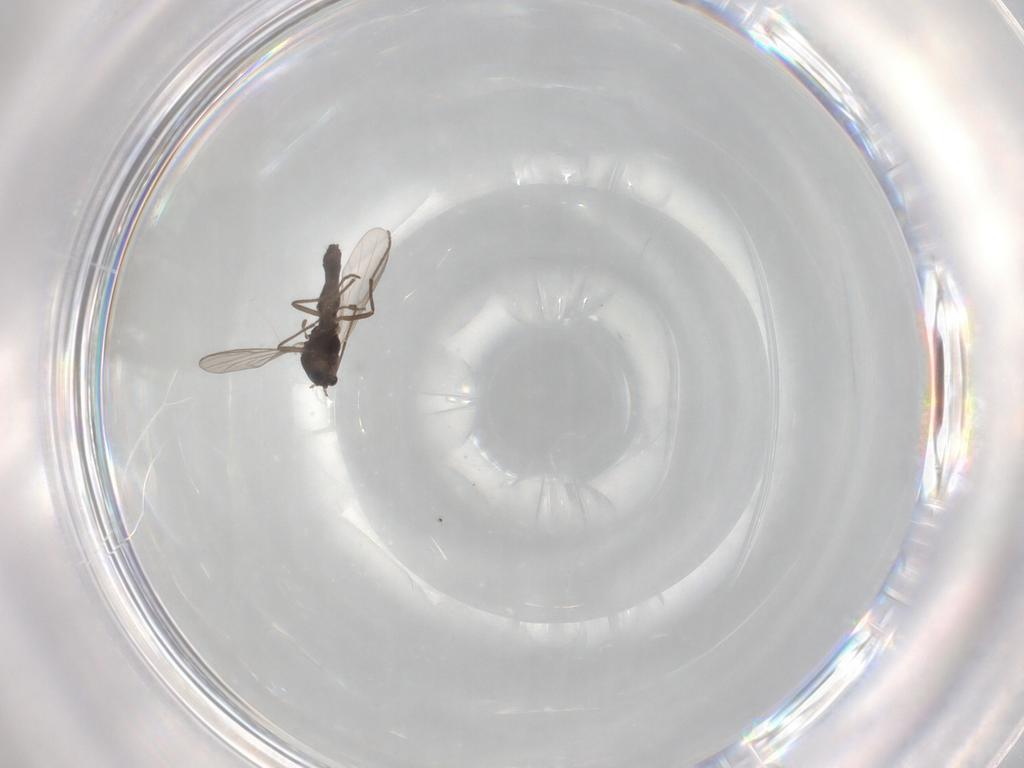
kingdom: Animalia
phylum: Arthropoda
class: Insecta
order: Diptera
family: Chironomidae
